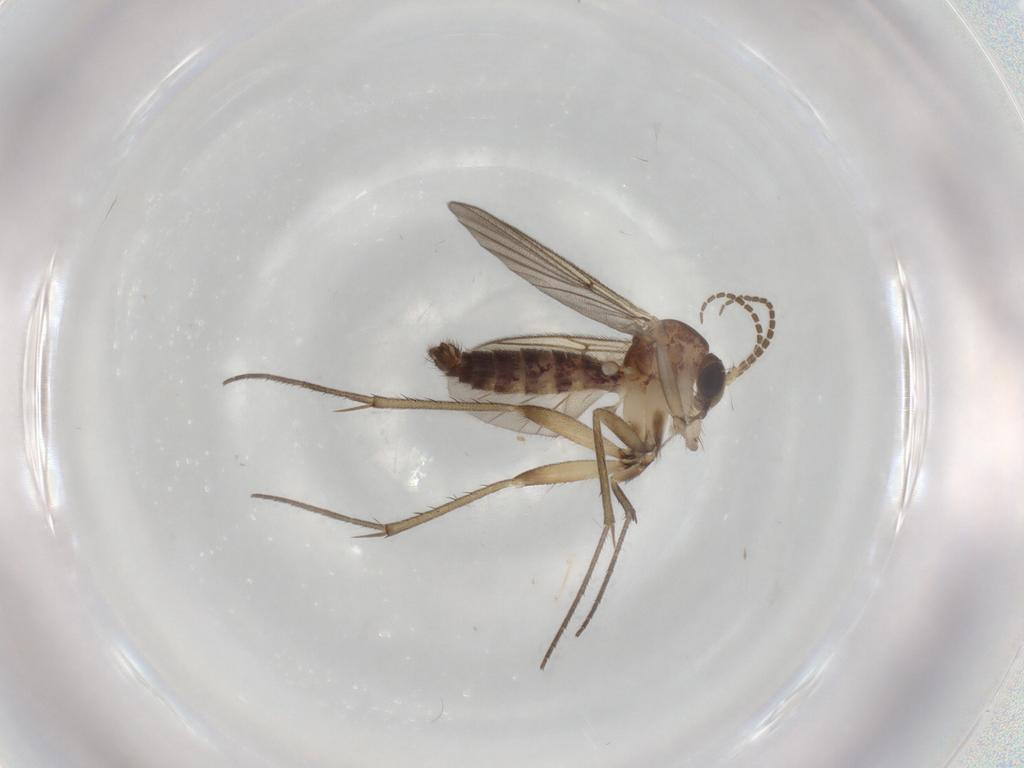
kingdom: Animalia
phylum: Arthropoda
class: Insecta
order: Diptera
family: Mycetophilidae
